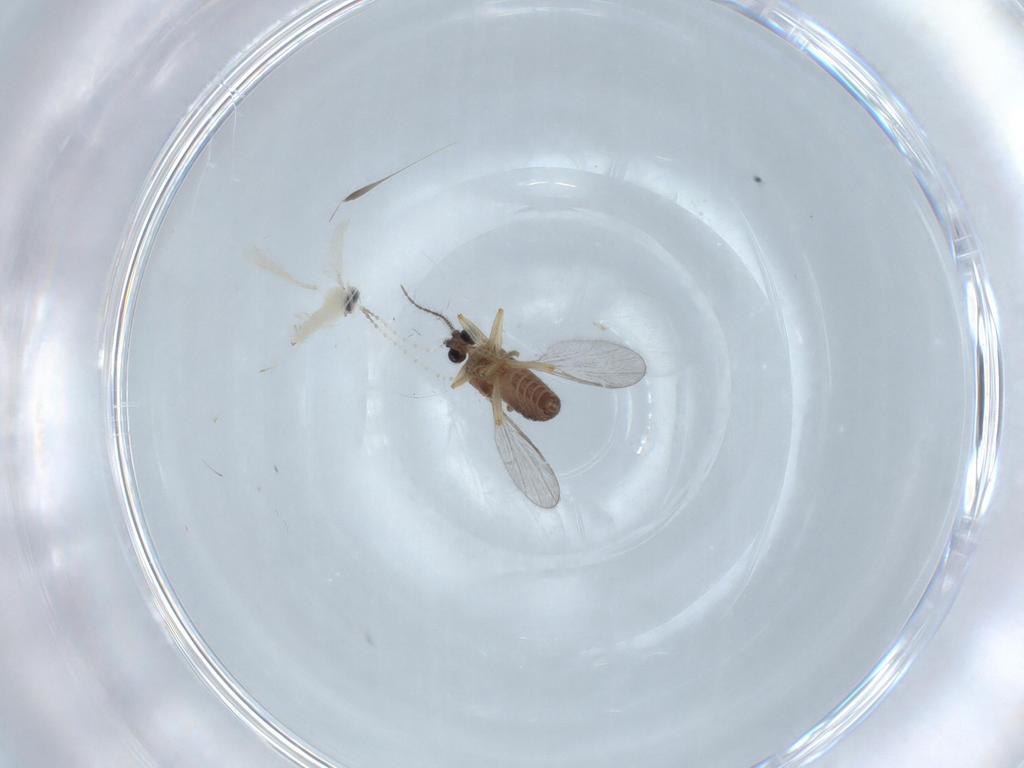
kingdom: Animalia
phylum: Arthropoda
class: Insecta
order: Diptera
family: Cecidomyiidae
